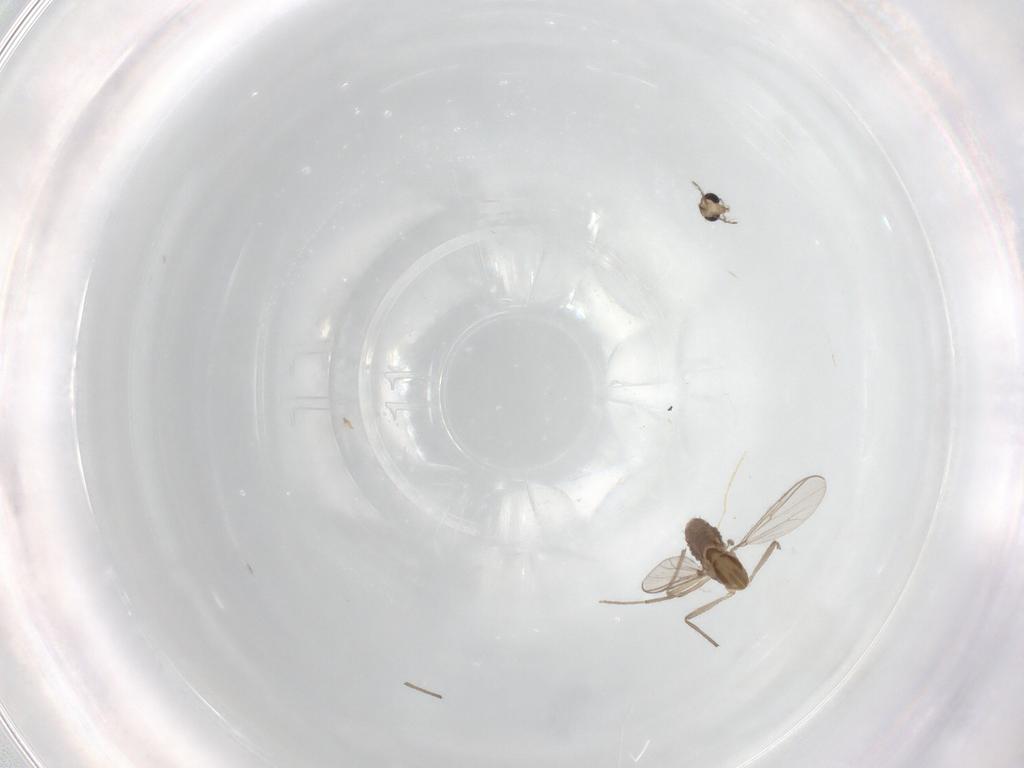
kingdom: Animalia
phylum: Arthropoda
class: Insecta
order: Diptera
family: Chironomidae
